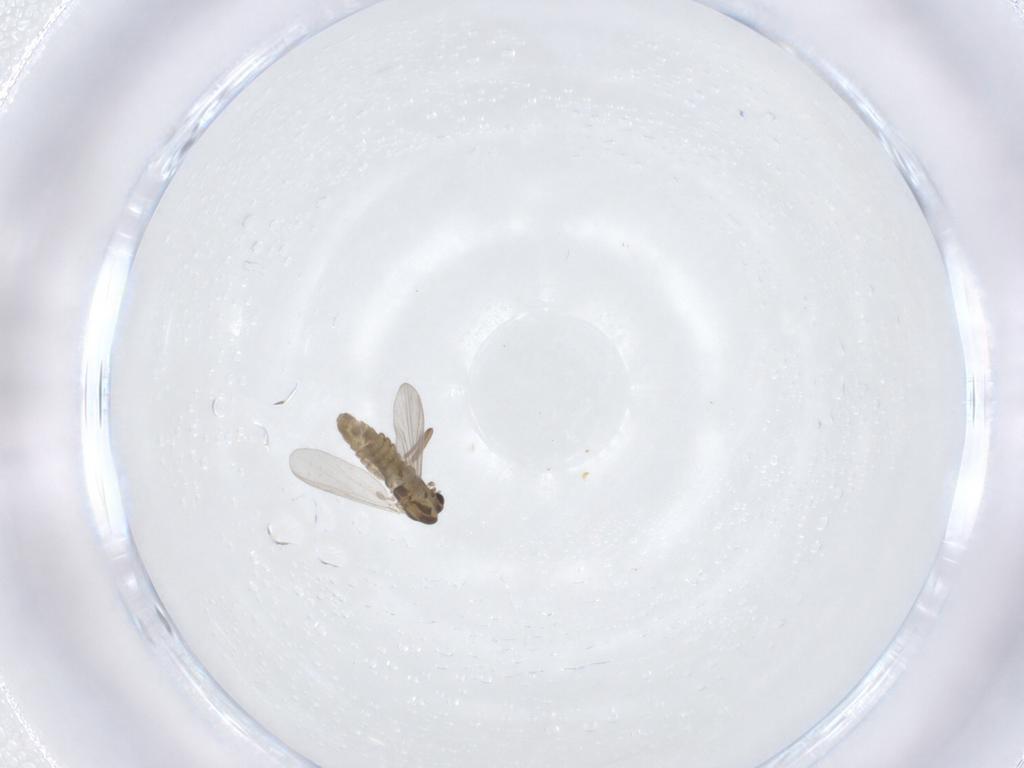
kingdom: Animalia
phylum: Arthropoda
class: Insecta
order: Diptera
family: Chironomidae
